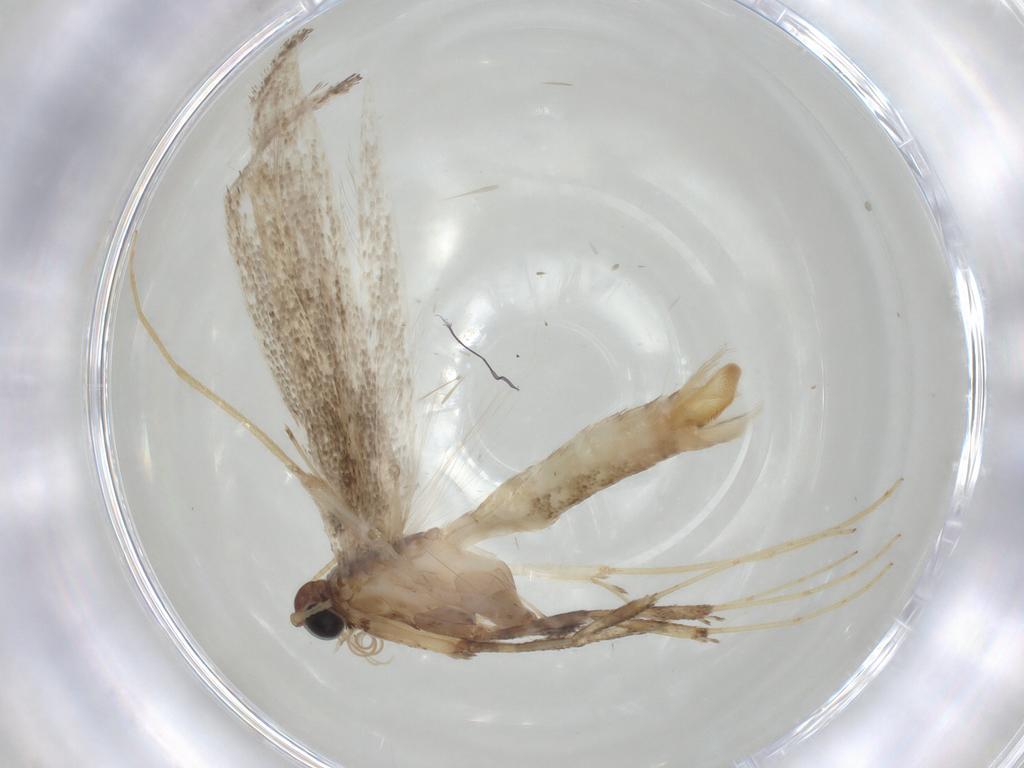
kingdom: Animalia
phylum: Arthropoda
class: Insecta
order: Lepidoptera
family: Gracillariidae
